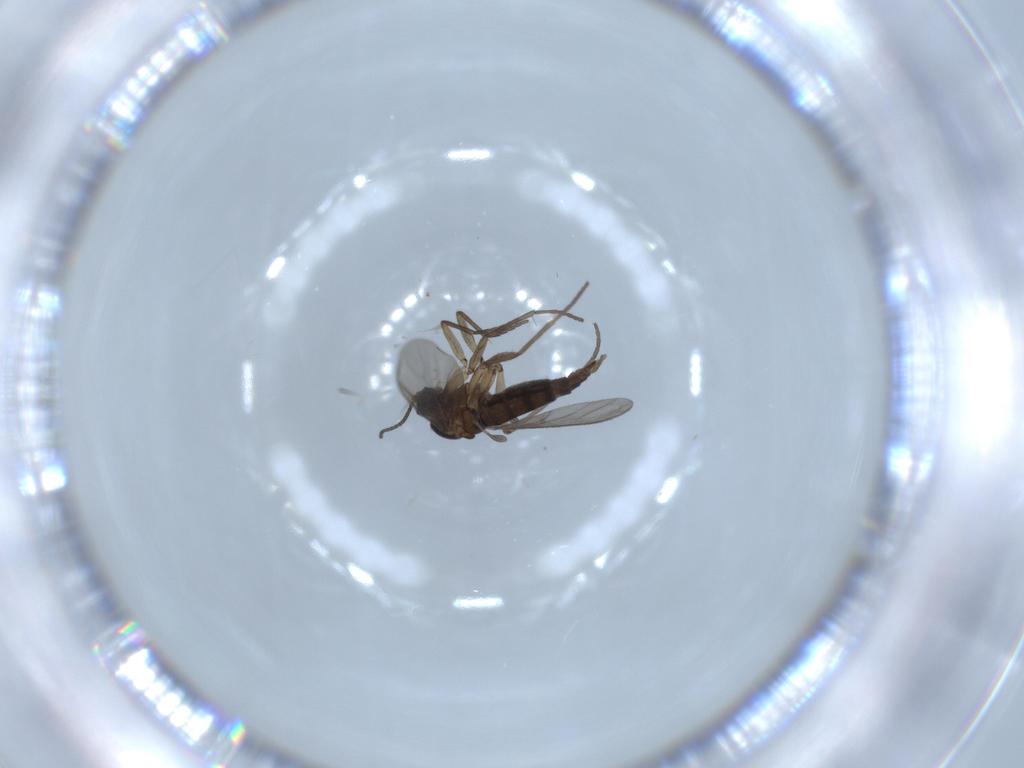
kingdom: Animalia
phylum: Arthropoda
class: Insecta
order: Diptera
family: Sciaridae
